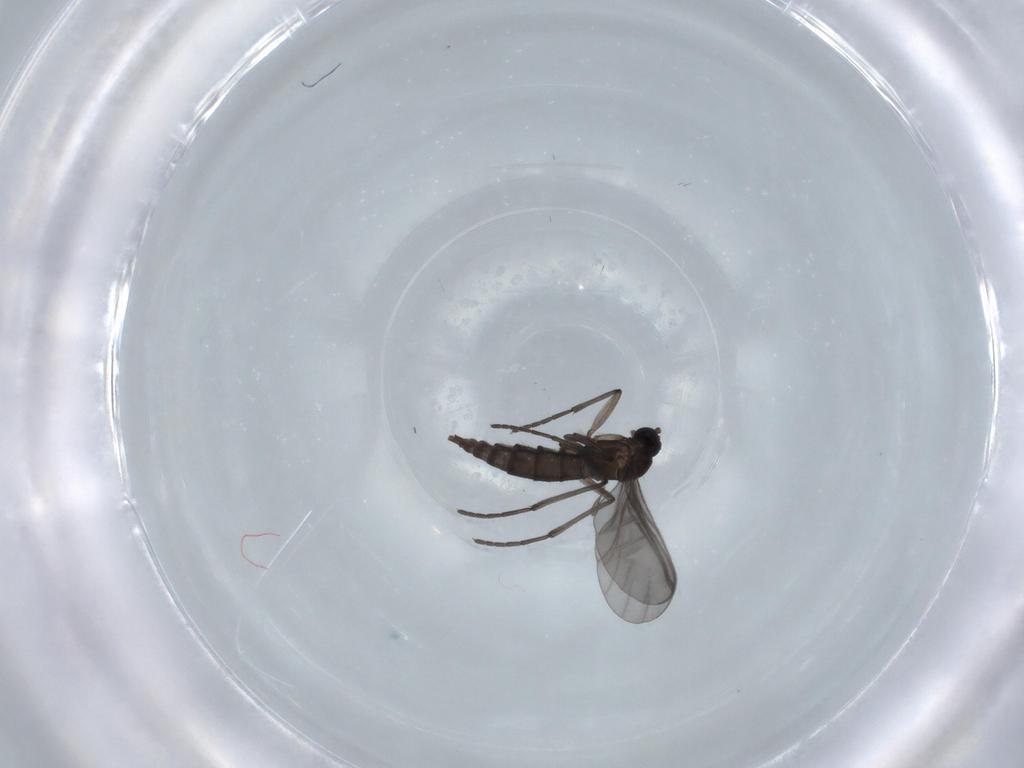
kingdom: Animalia
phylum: Arthropoda
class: Insecta
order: Diptera
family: Sciaridae
